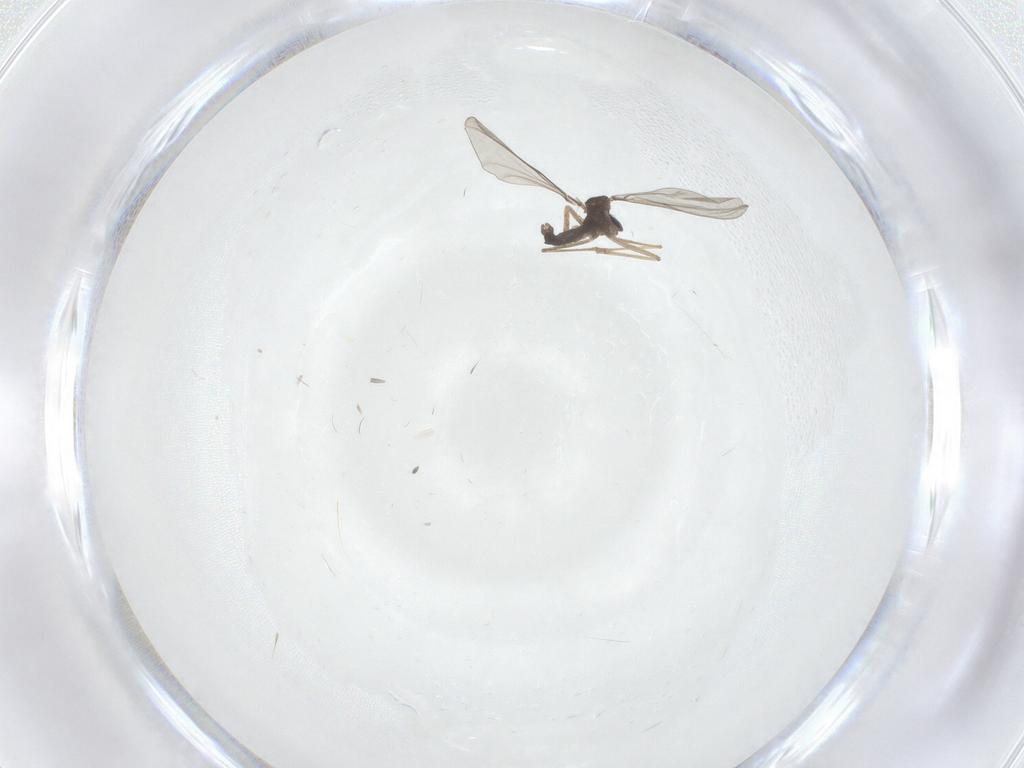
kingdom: Animalia
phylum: Arthropoda
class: Insecta
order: Diptera
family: Cecidomyiidae
